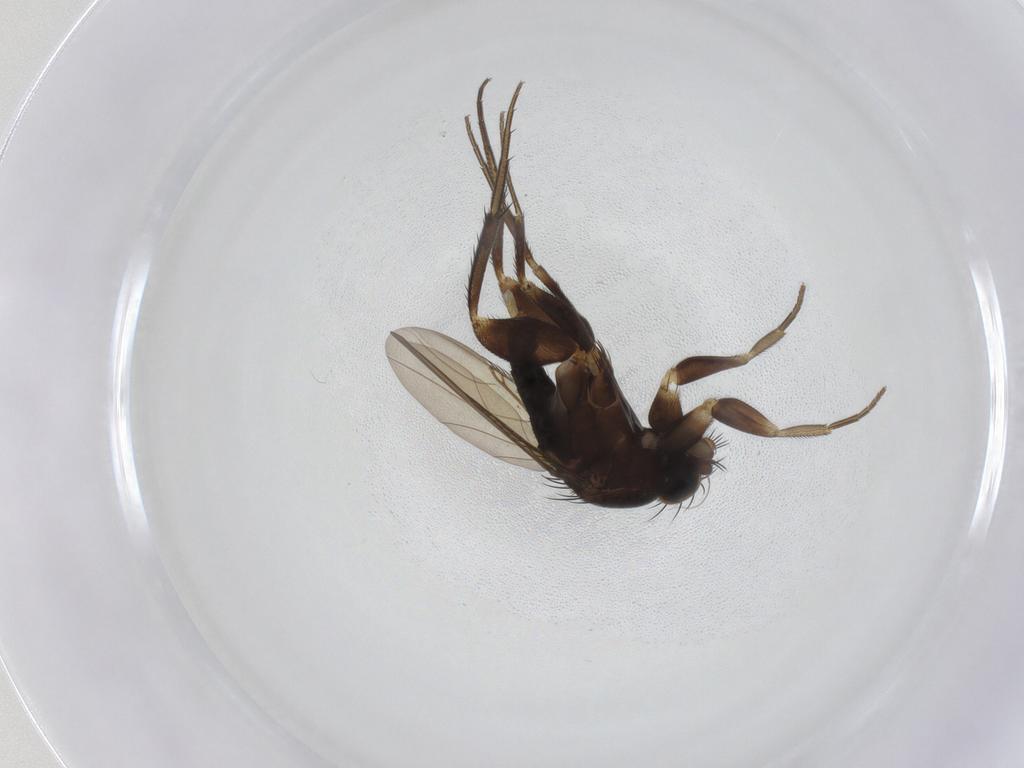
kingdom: Animalia
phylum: Arthropoda
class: Insecta
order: Diptera
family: Phoridae
